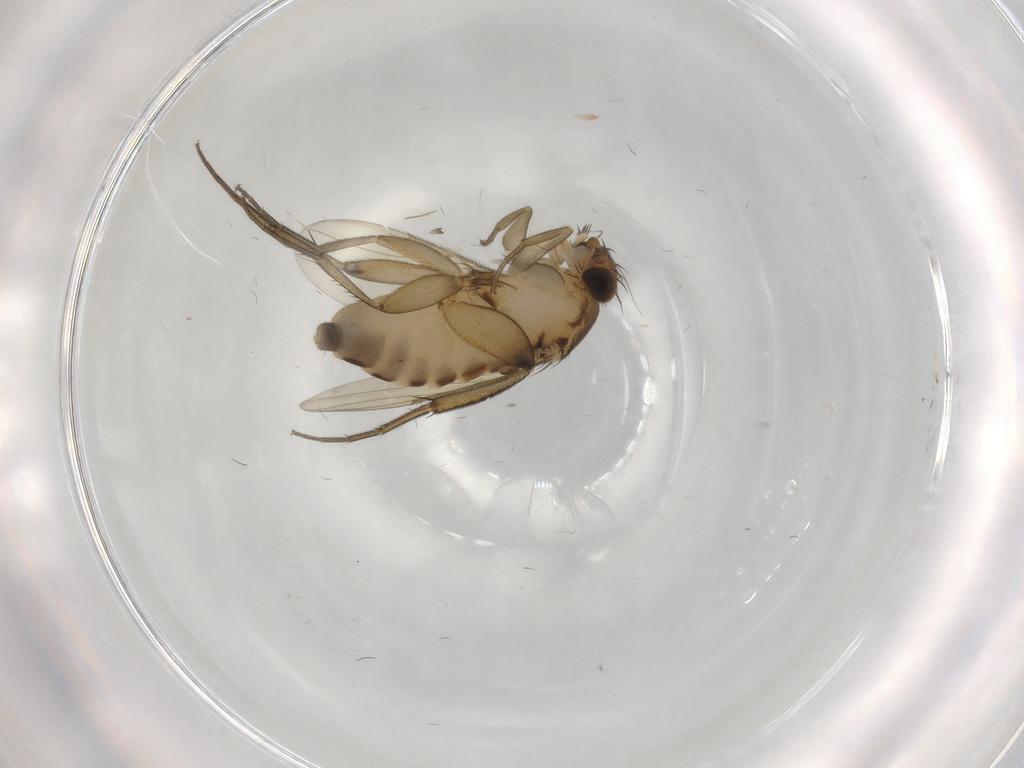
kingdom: Animalia
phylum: Arthropoda
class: Insecta
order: Diptera
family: Phoridae
